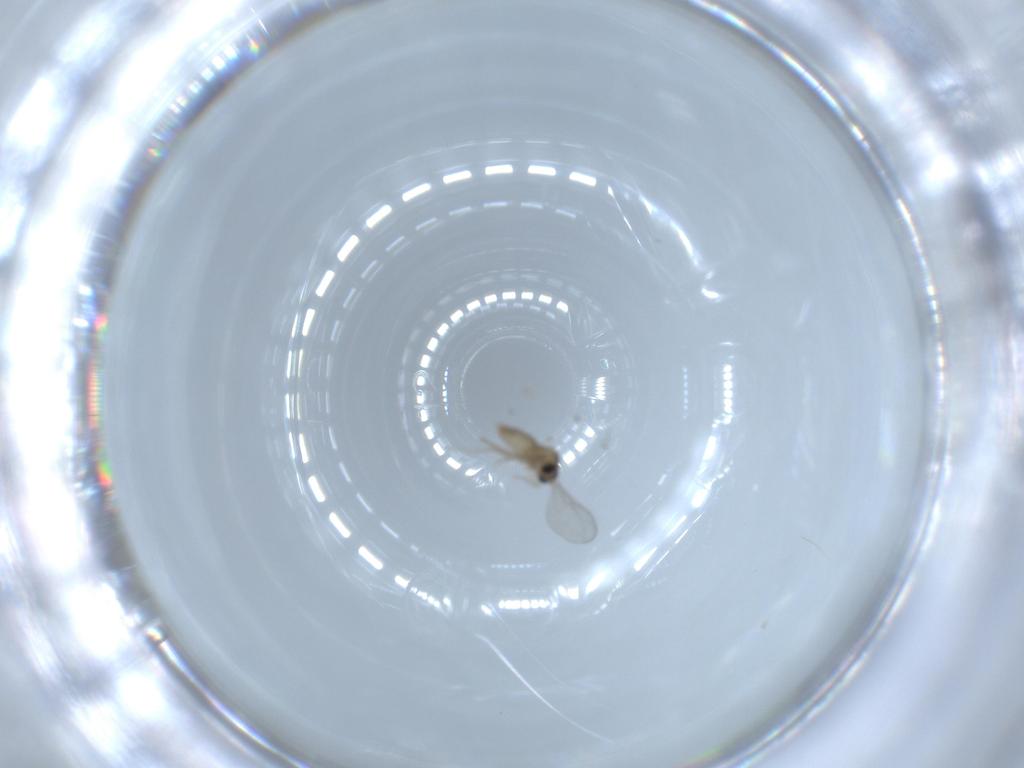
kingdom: Animalia
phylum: Arthropoda
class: Insecta
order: Diptera
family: Cecidomyiidae
